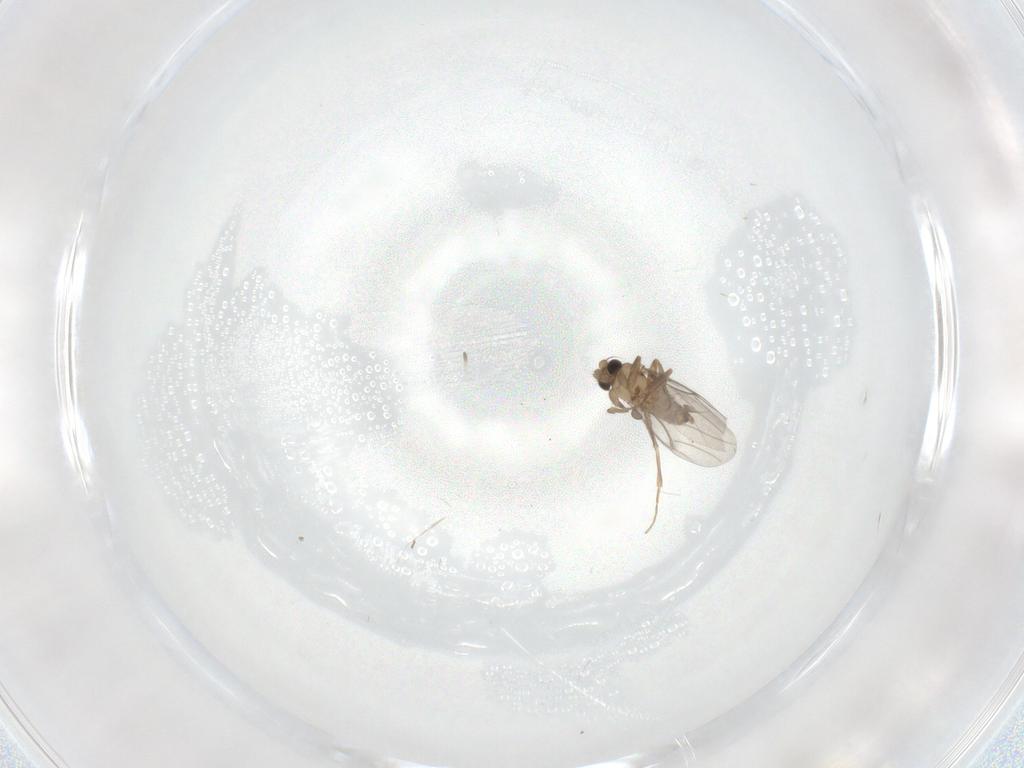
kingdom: Animalia
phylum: Arthropoda
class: Insecta
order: Diptera
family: Phoridae
